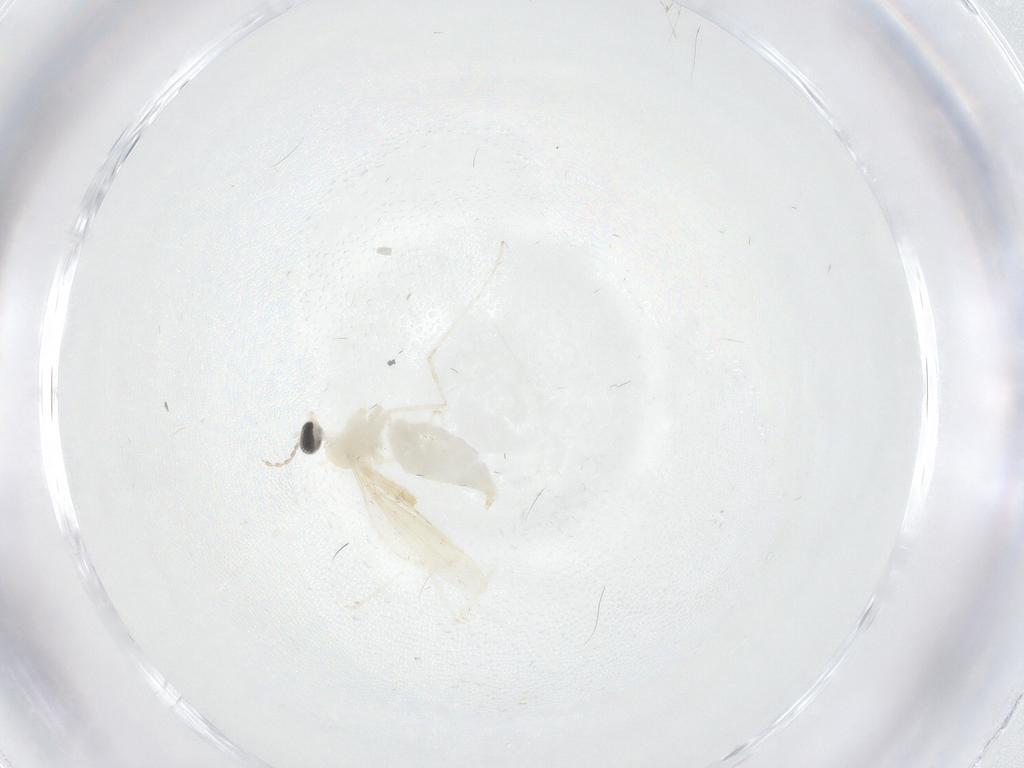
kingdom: Animalia
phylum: Arthropoda
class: Insecta
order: Diptera
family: Cecidomyiidae
